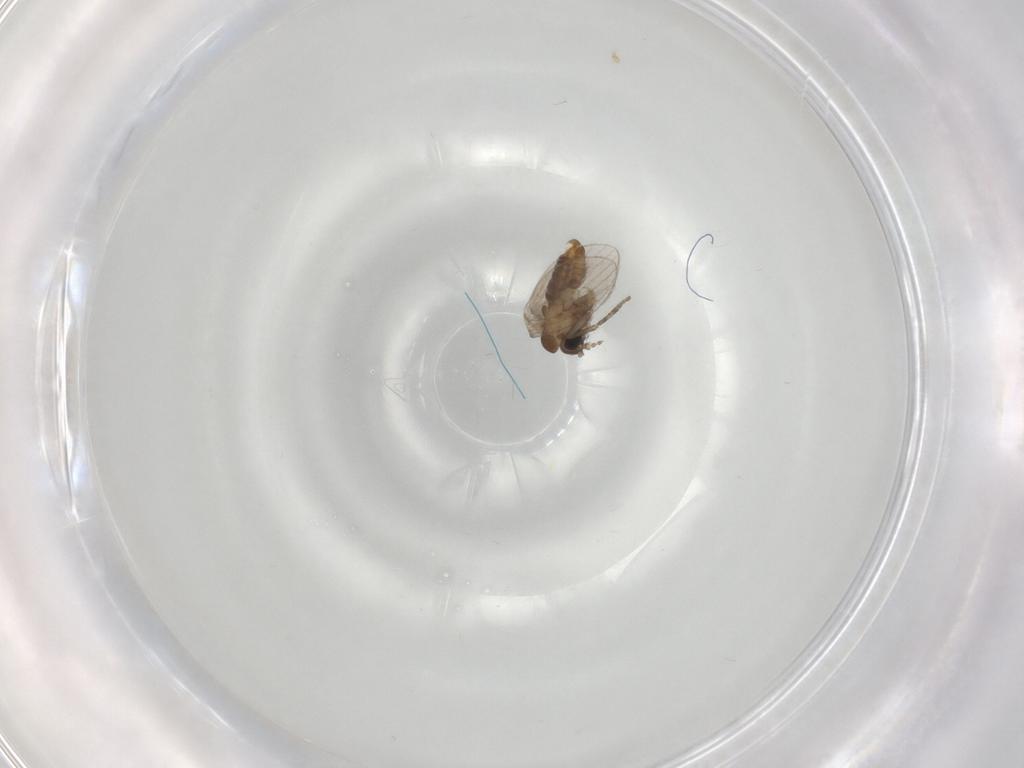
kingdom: Animalia
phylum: Arthropoda
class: Insecta
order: Diptera
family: Ceratopogonidae
